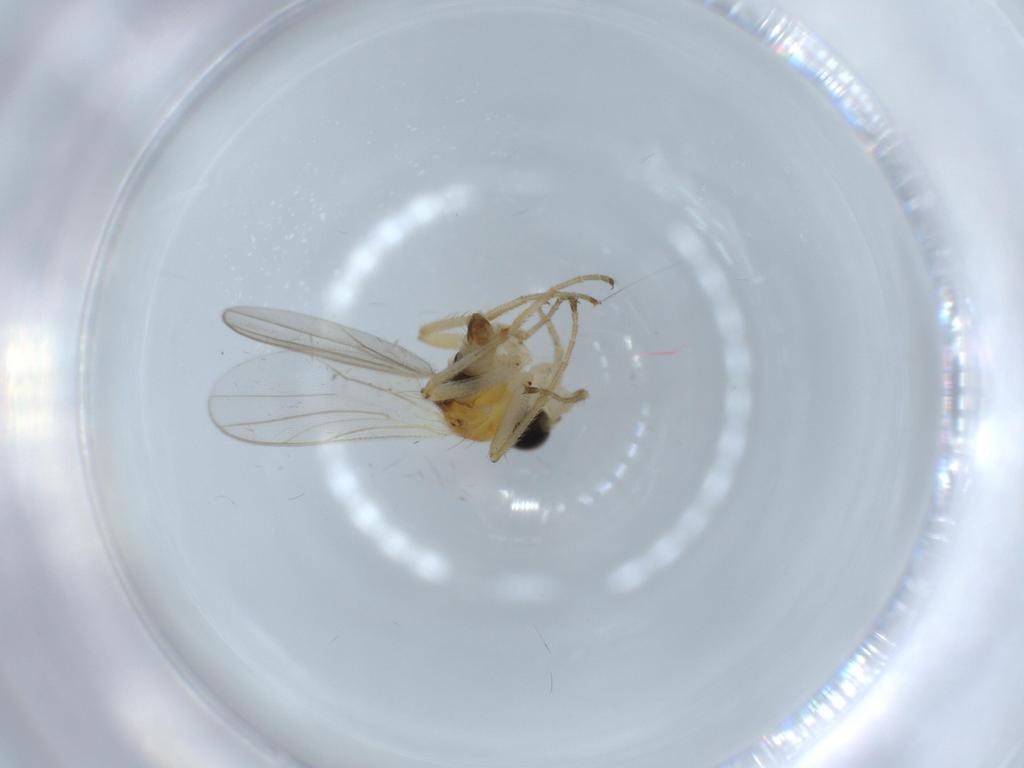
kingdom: Animalia
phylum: Arthropoda
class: Insecta
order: Diptera
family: Hybotidae
